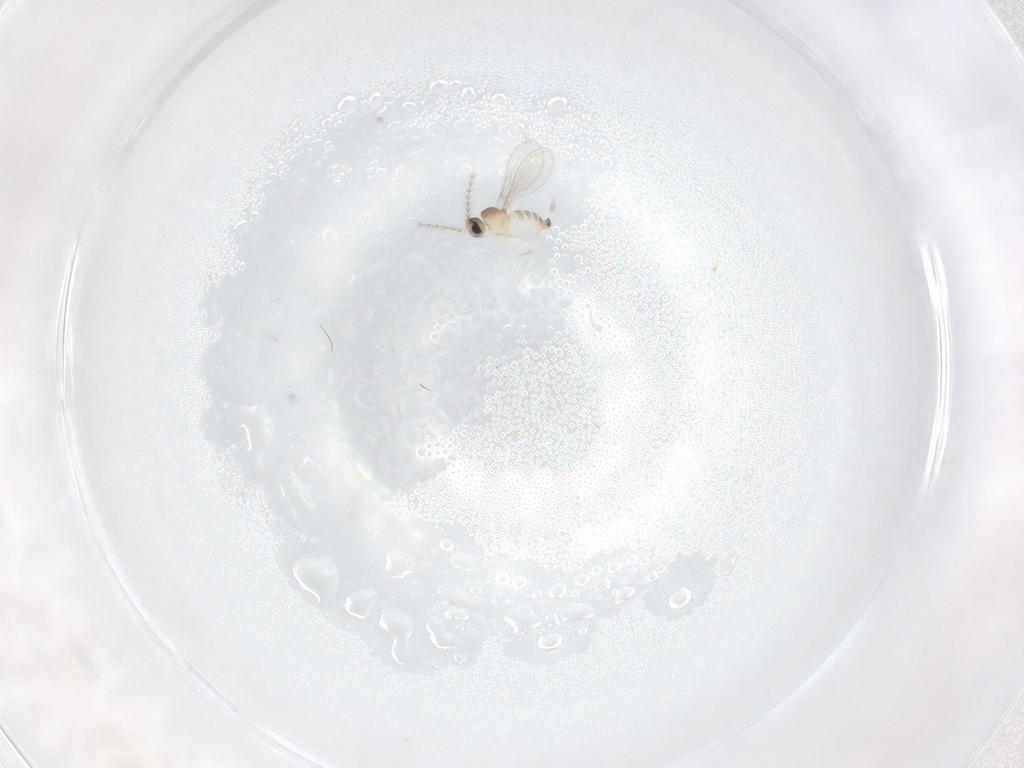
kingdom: Animalia
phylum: Arthropoda
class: Insecta
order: Diptera
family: Cecidomyiidae
